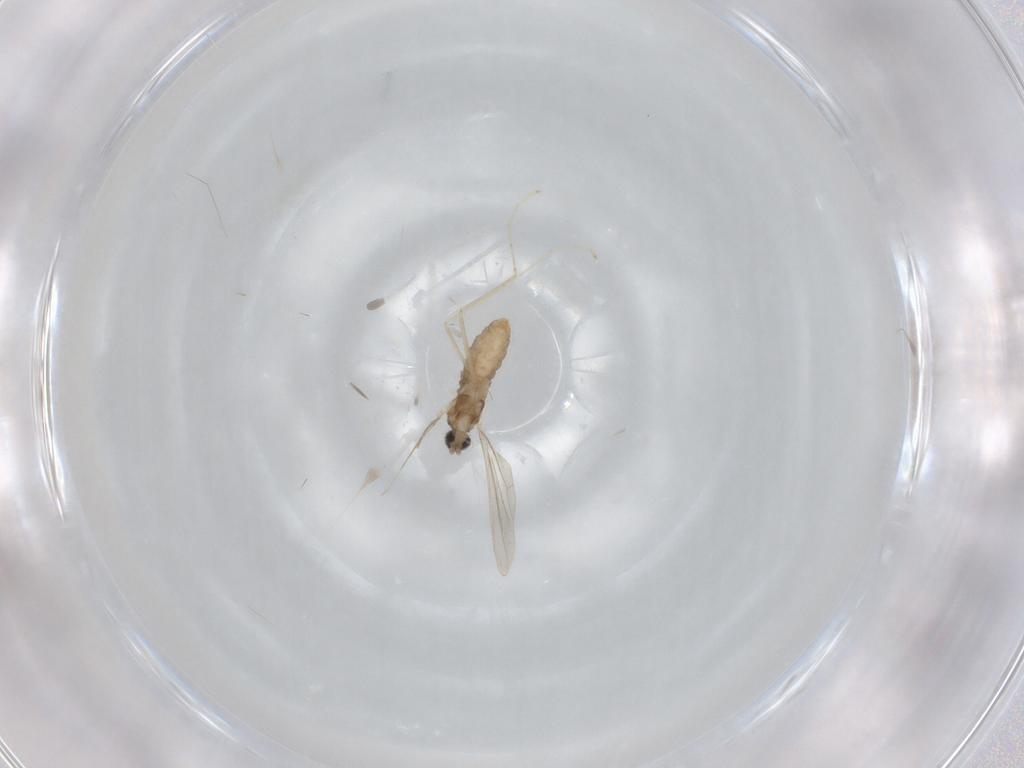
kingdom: Animalia
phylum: Arthropoda
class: Insecta
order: Diptera
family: Cecidomyiidae
